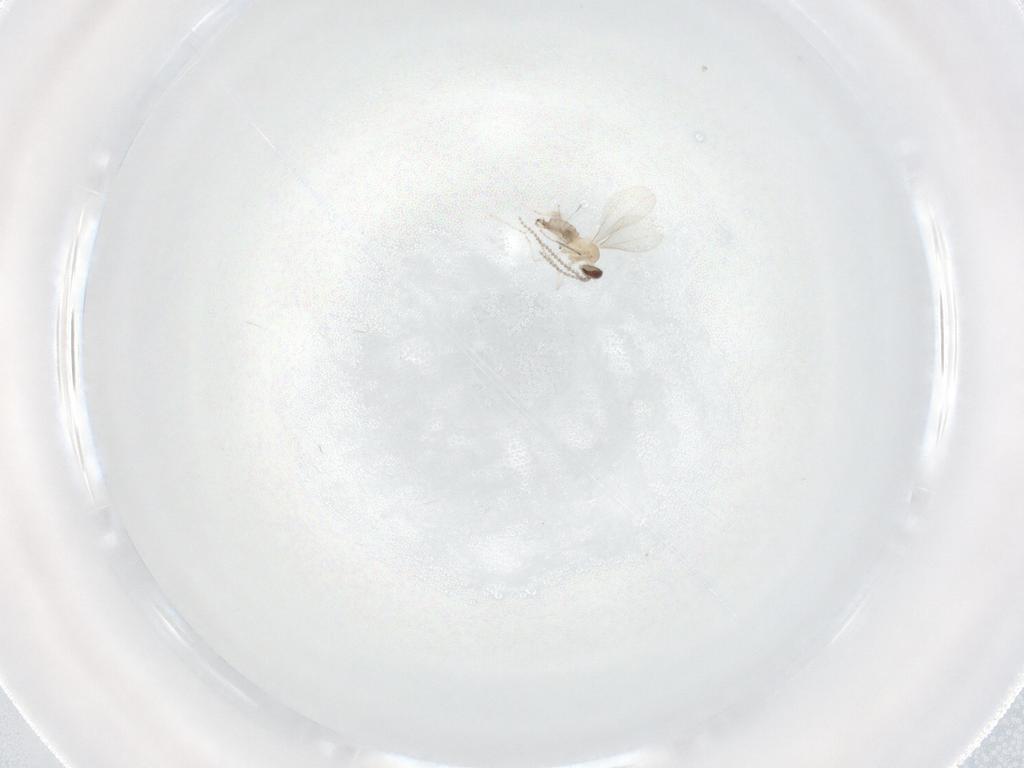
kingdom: Animalia
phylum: Arthropoda
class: Insecta
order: Diptera
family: Cecidomyiidae
